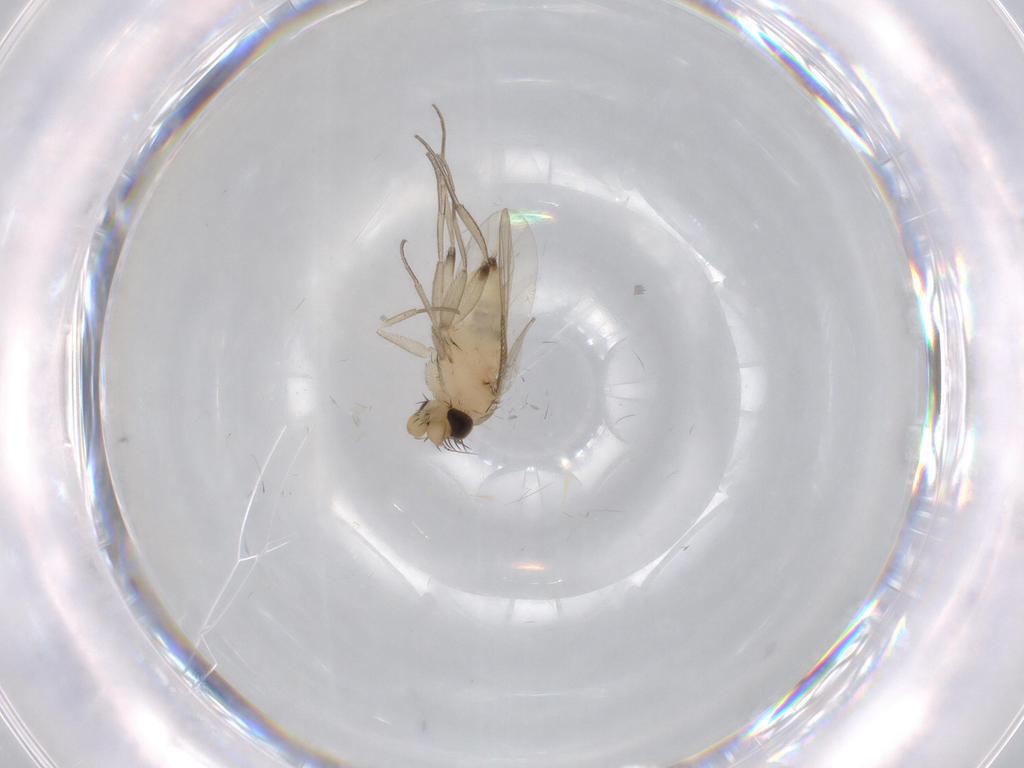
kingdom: Animalia
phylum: Arthropoda
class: Insecta
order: Diptera
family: Phoridae
